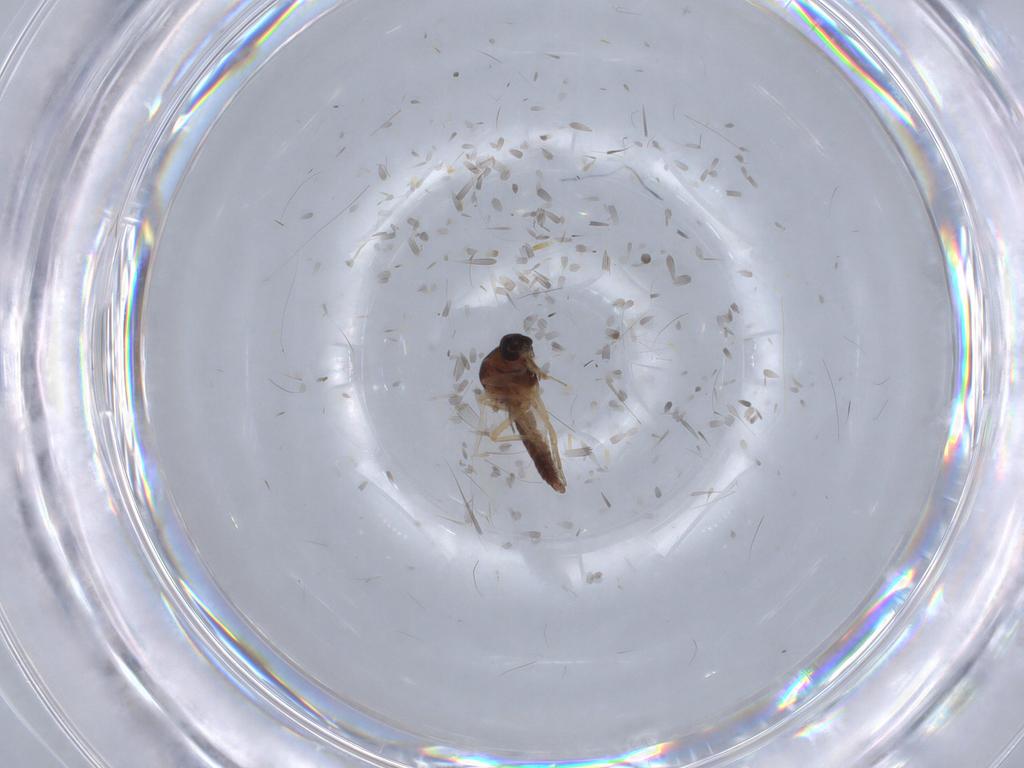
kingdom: Animalia
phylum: Arthropoda
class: Insecta
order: Diptera
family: Ceratopogonidae
